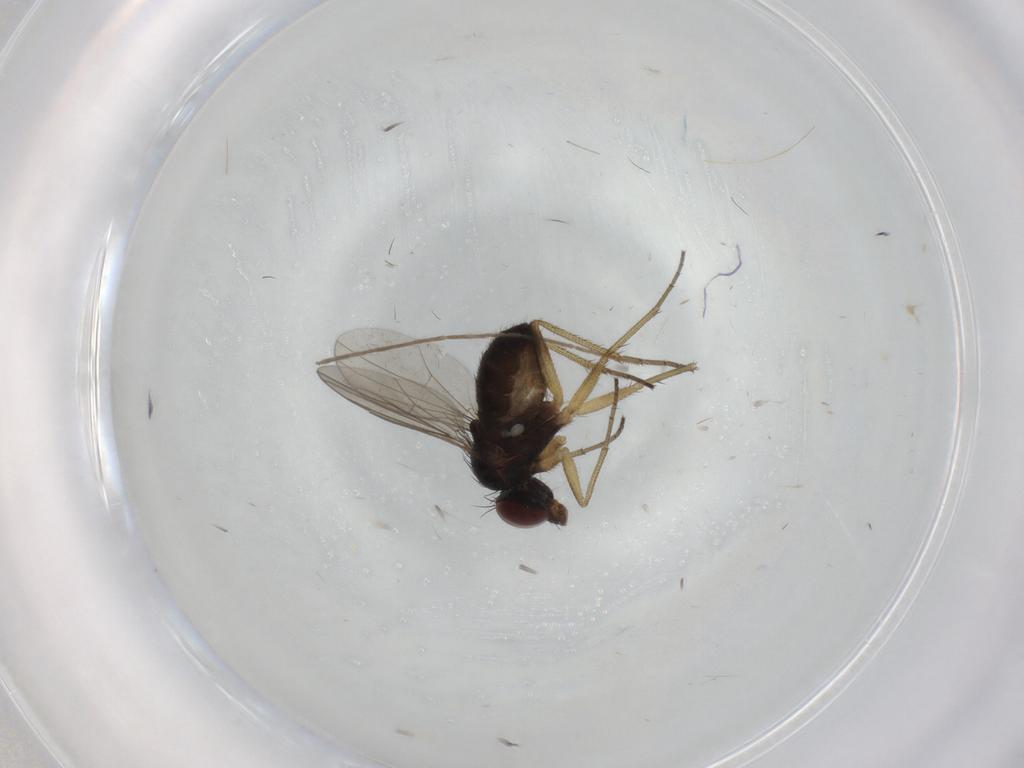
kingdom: Animalia
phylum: Arthropoda
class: Insecta
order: Diptera
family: Dolichopodidae
